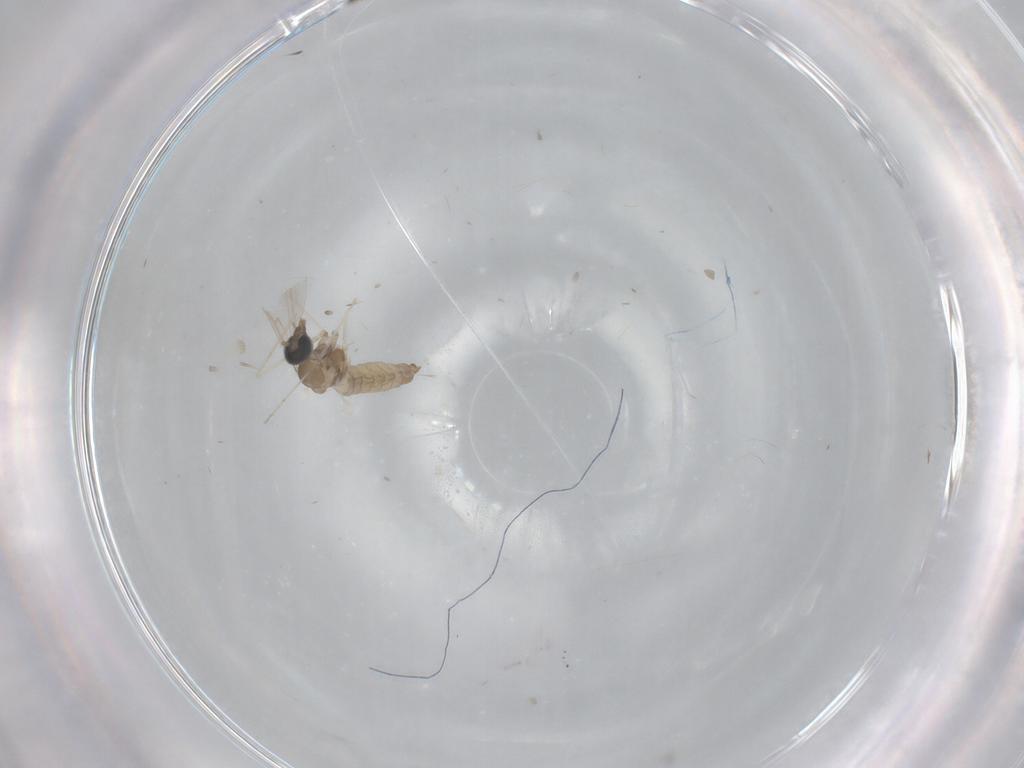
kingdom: Animalia
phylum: Arthropoda
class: Insecta
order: Diptera
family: Cecidomyiidae
